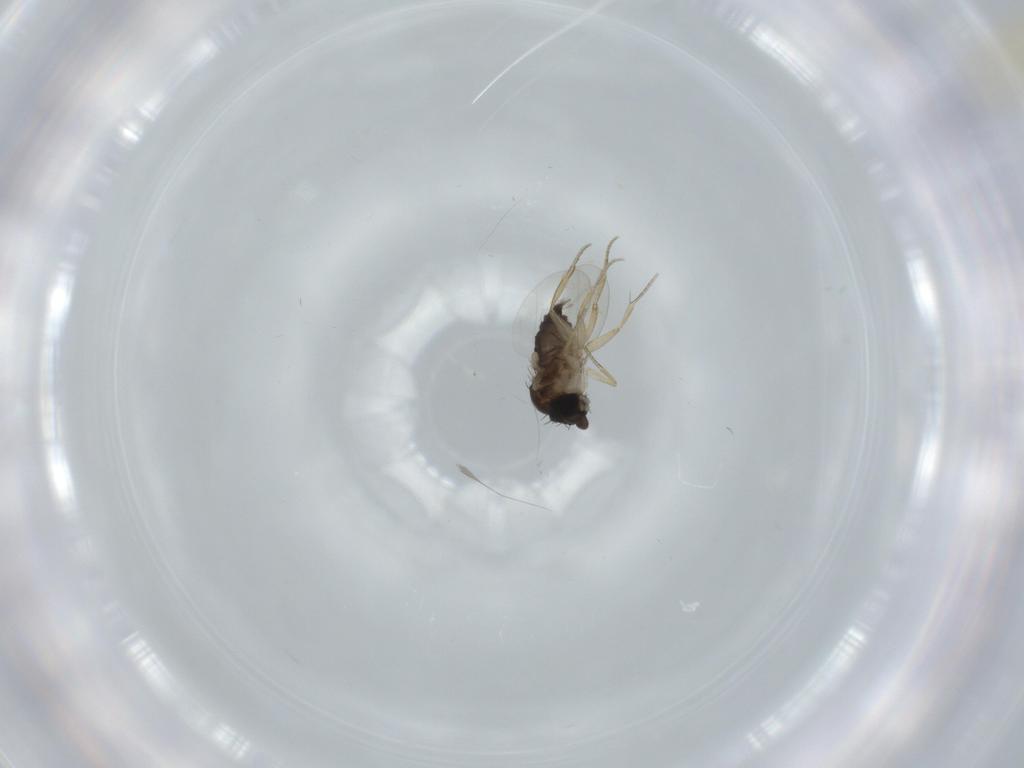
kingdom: Animalia
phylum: Arthropoda
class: Insecta
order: Diptera
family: Phoridae
